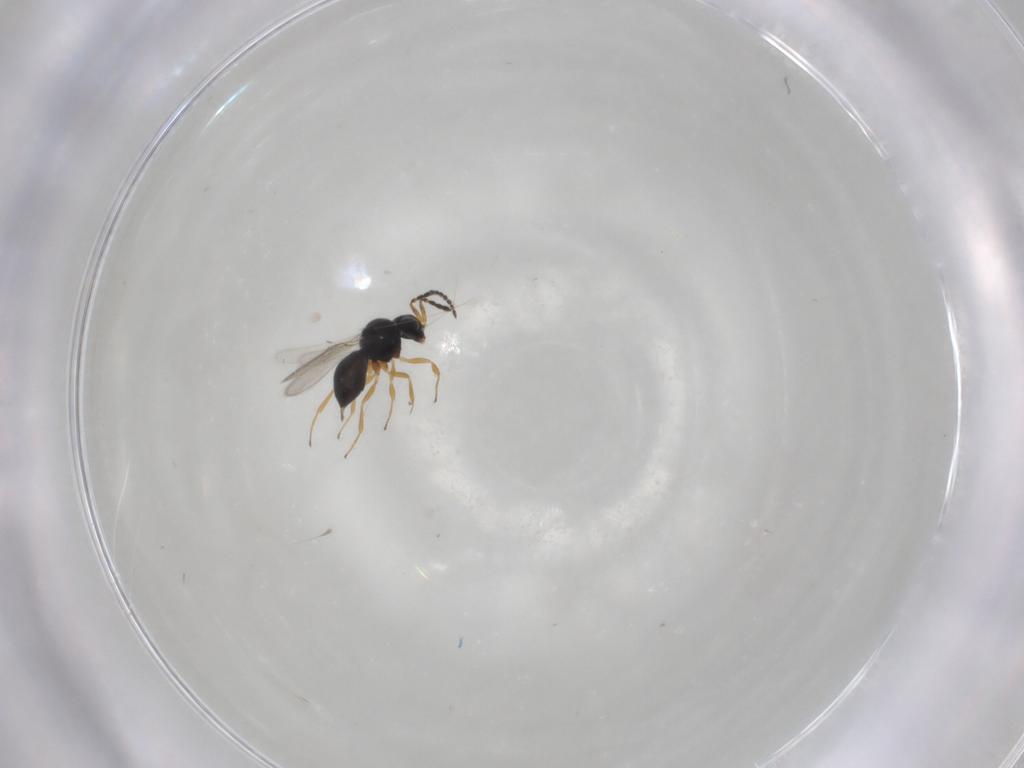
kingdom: Animalia
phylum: Arthropoda
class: Insecta
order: Hymenoptera
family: Scelionidae
